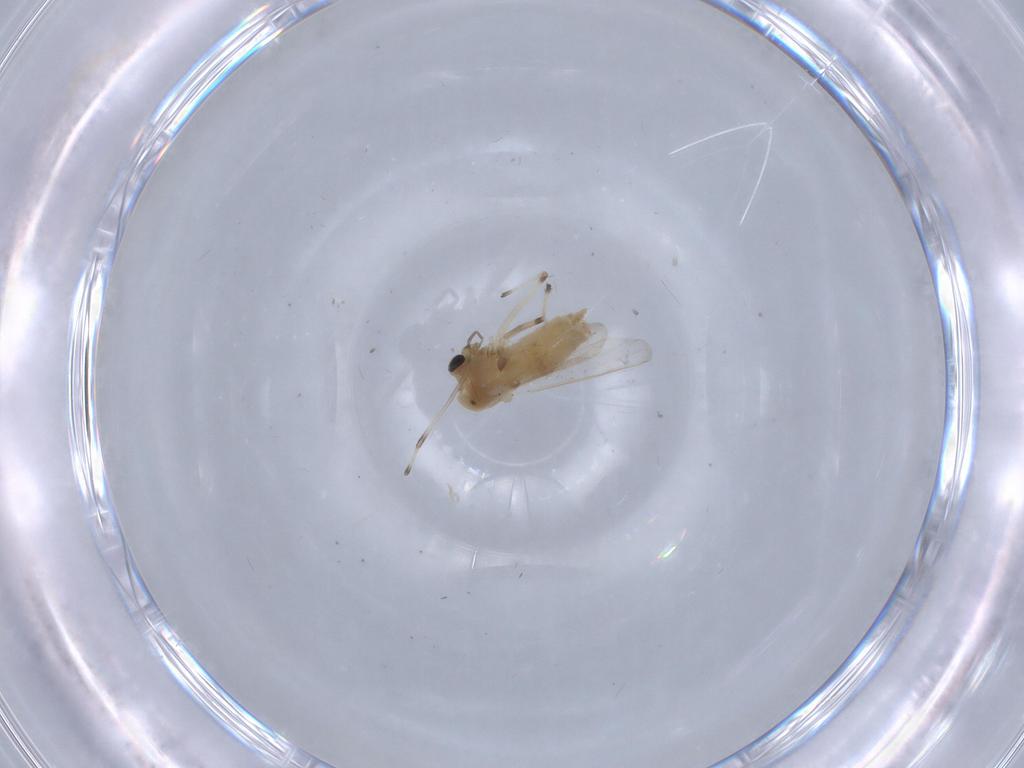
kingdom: Animalia
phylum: Arthropoda
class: Insecta
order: Diptera
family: Chironomidae
